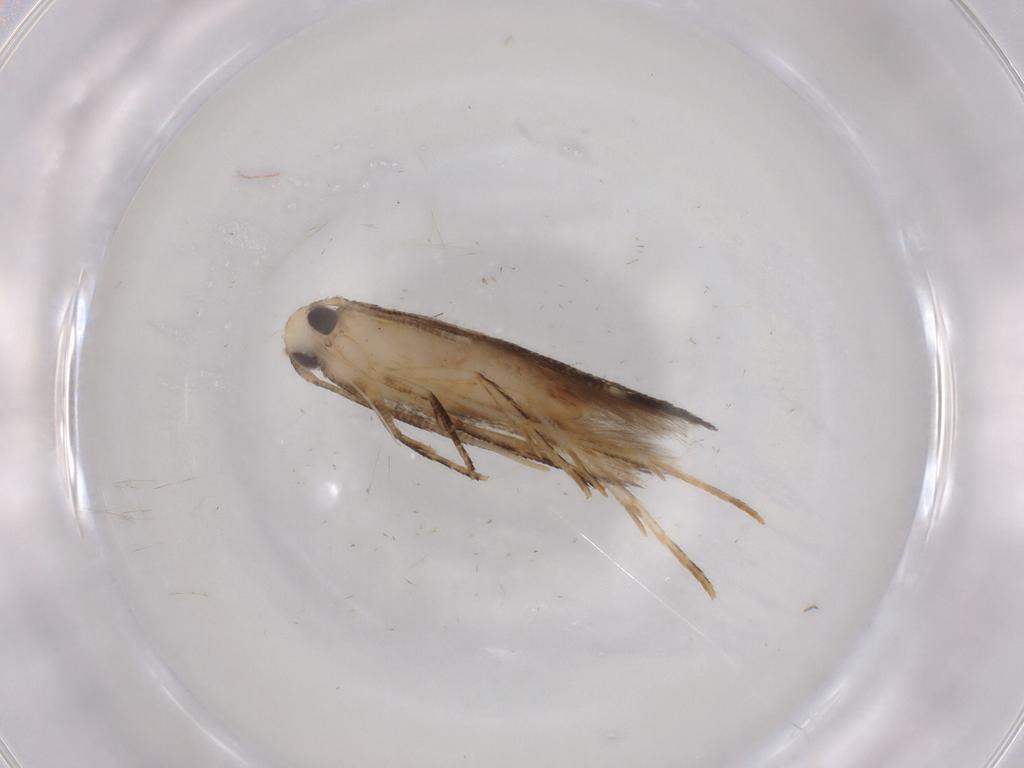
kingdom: Animalia
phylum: Arthropoda
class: Insecta
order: Lepidoptera
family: Cosmopterigidae
